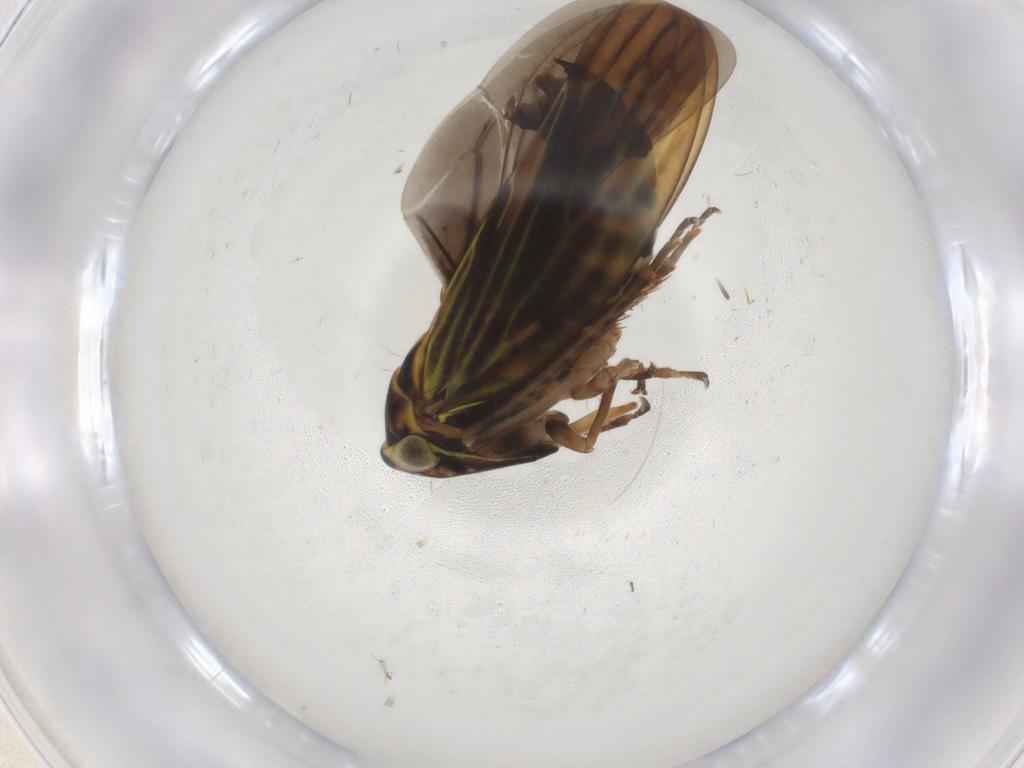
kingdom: Animalia
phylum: Arthropoda
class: Insecta
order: Hemiptera
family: Cicadellidae
